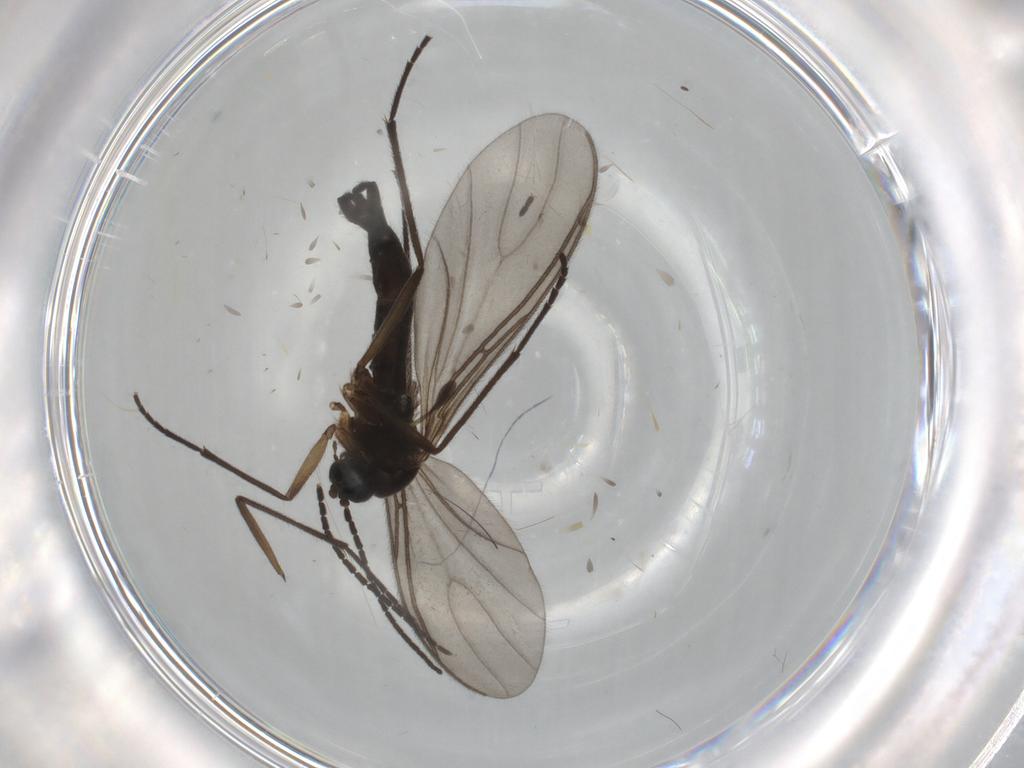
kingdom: Animalia
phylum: Arthropoda
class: Insecta
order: Diptera
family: Sciaridae
